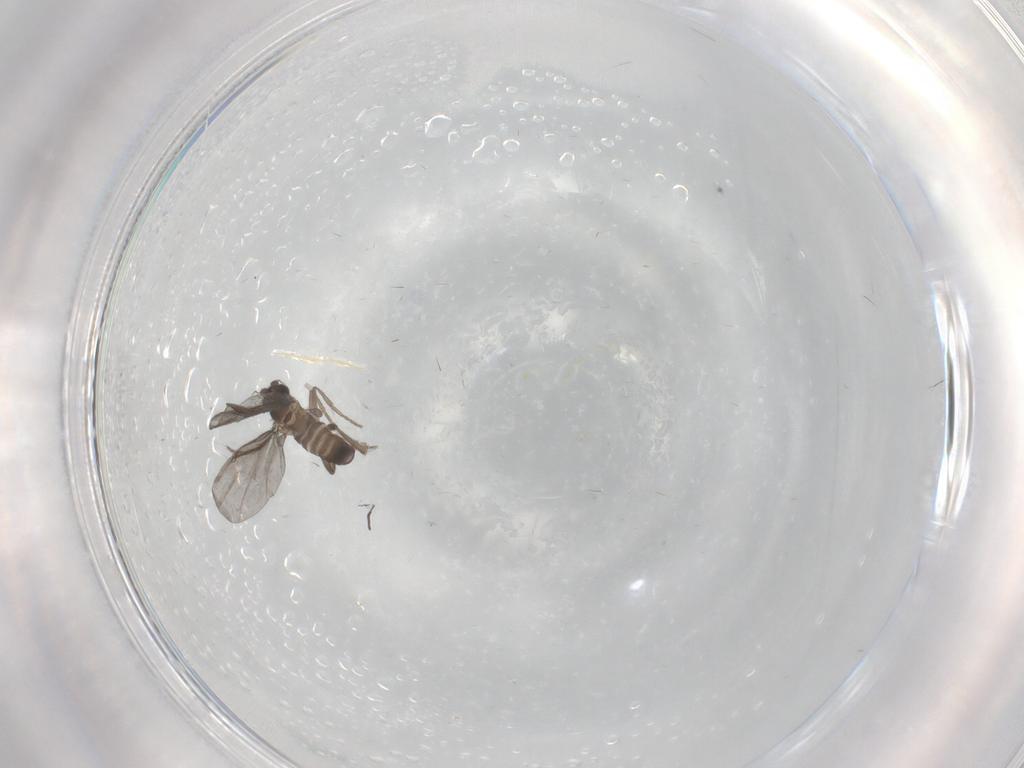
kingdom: Animalia
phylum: Arthropoda
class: Insecta
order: Diptera
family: Phoridae
